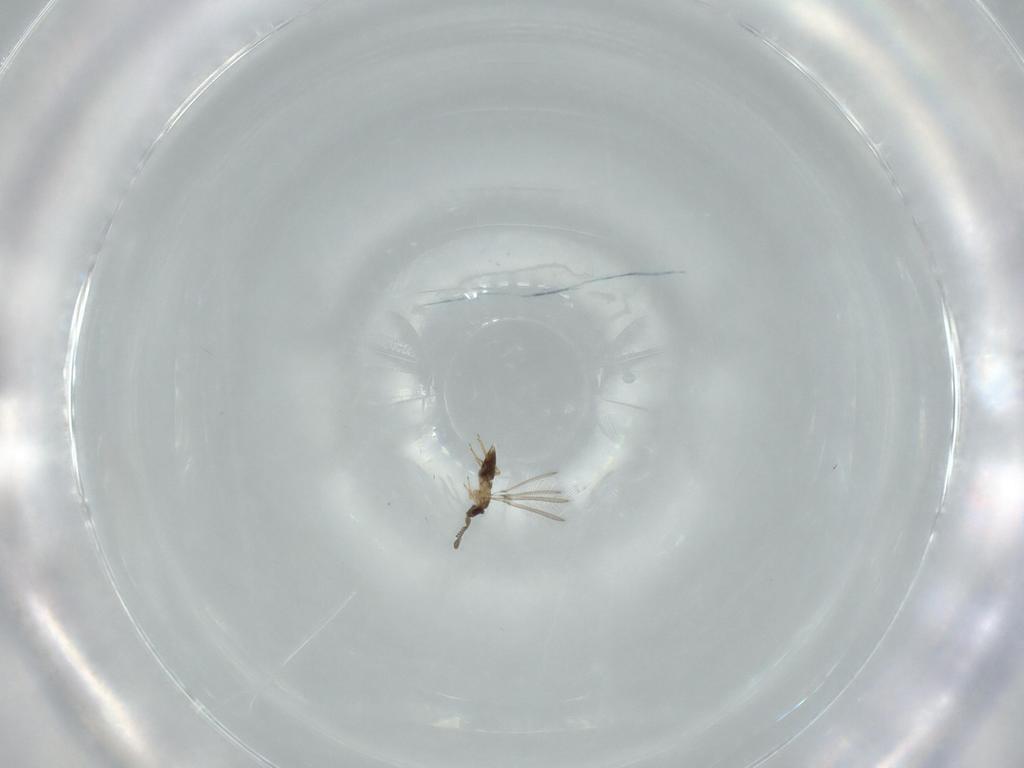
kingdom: Animalia
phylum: Arthropoda
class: Insecta
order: Hymenoptera
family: Mymaridae
